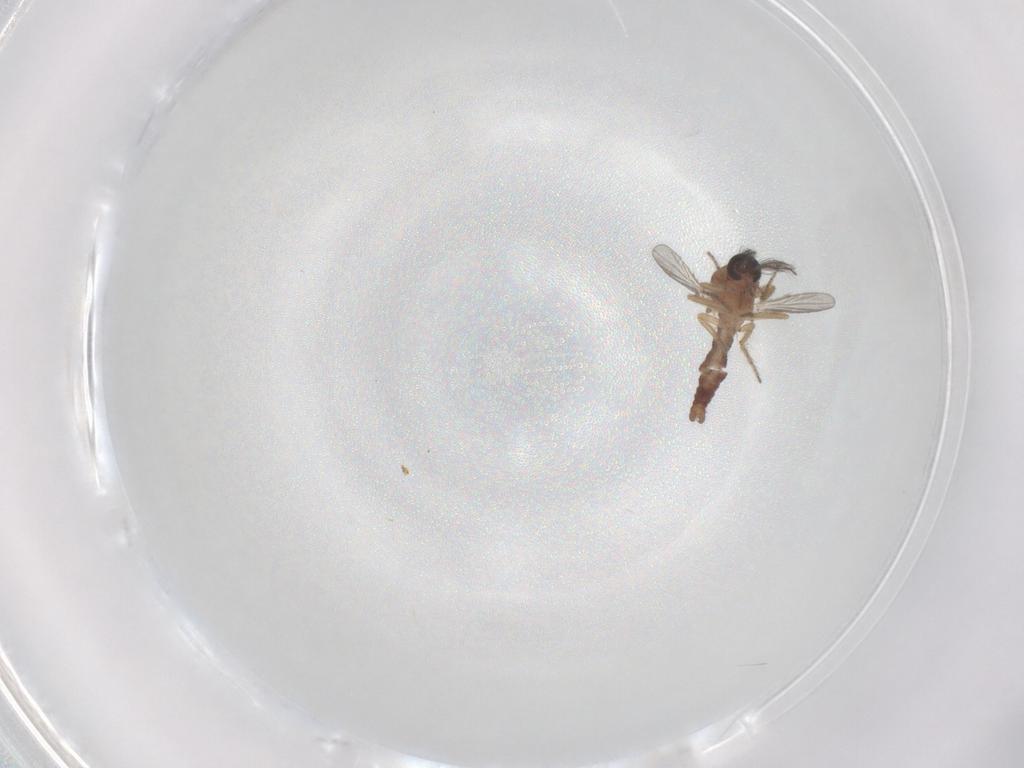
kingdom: Animalia
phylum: Arthropoda
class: Insecta
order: Diptera
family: Ceratopogonidae
